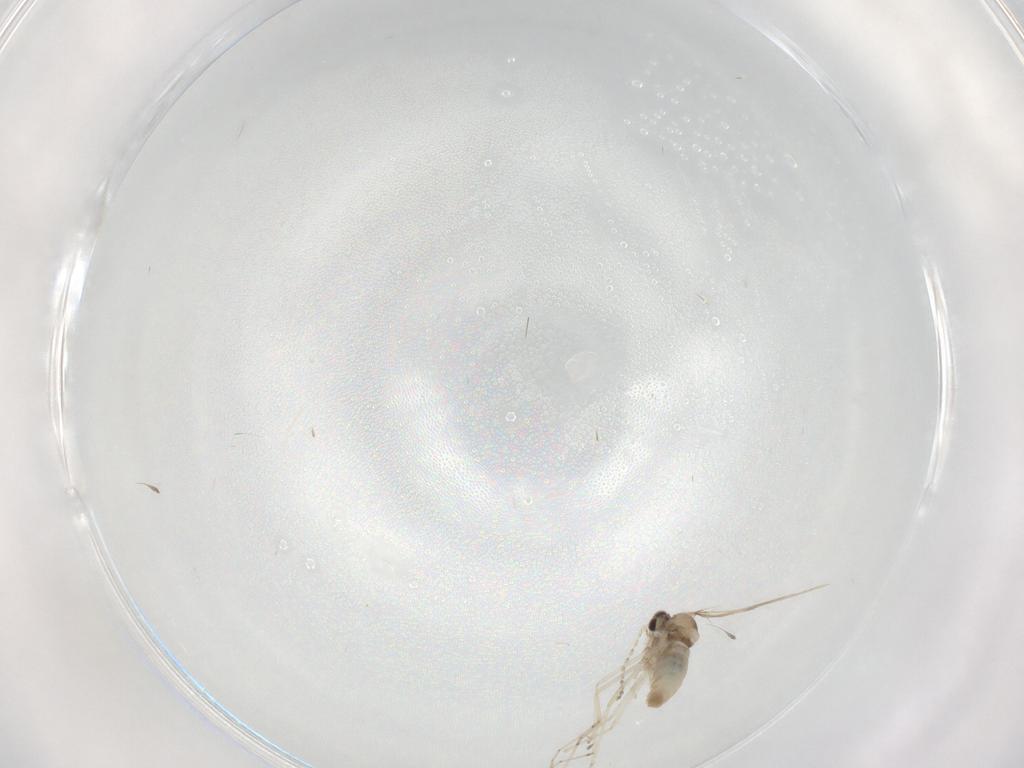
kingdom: Animalia
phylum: Arthropoda
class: Insecta
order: Diptera
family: Cecidomyiidae
